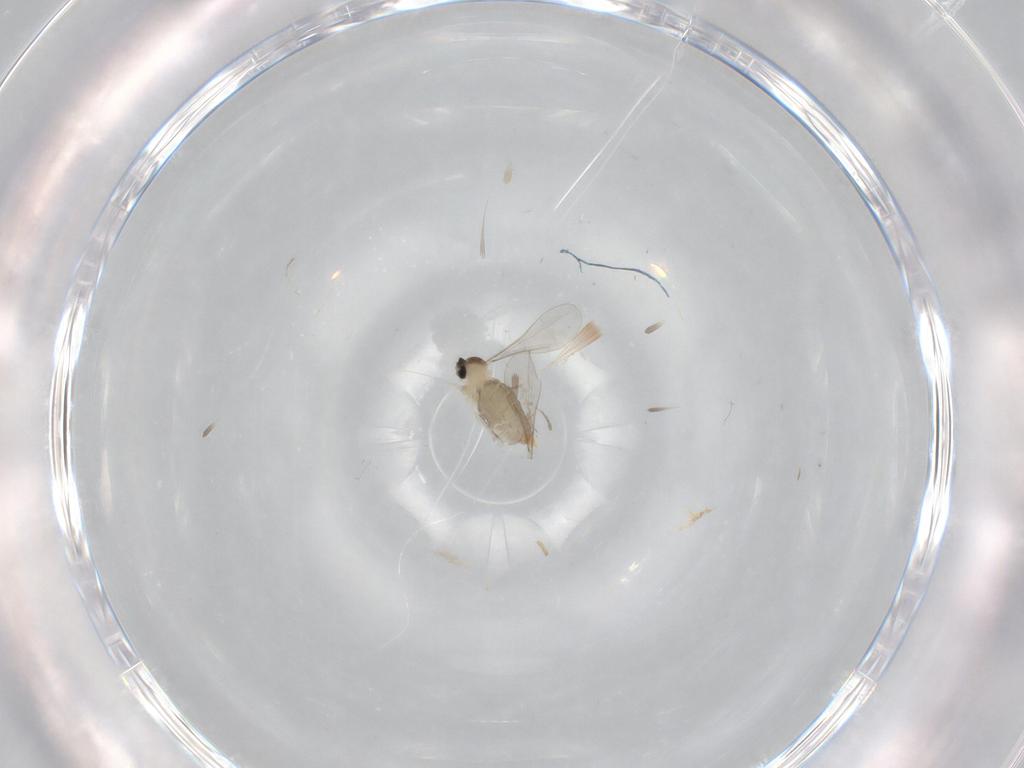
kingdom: Animalia
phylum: Arthropoda
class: Insecta
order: Diptera
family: Cecidomyiidae
